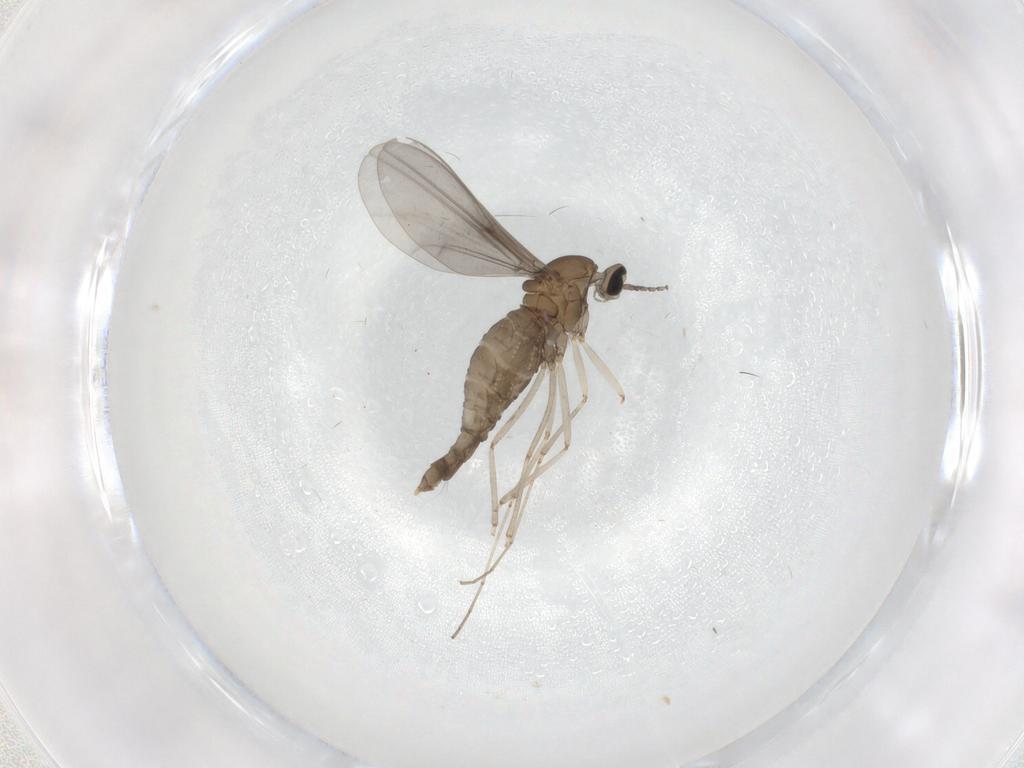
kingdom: Animalia
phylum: Arthropoda
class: Insecta
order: Diptera
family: Cecidomyiidae
